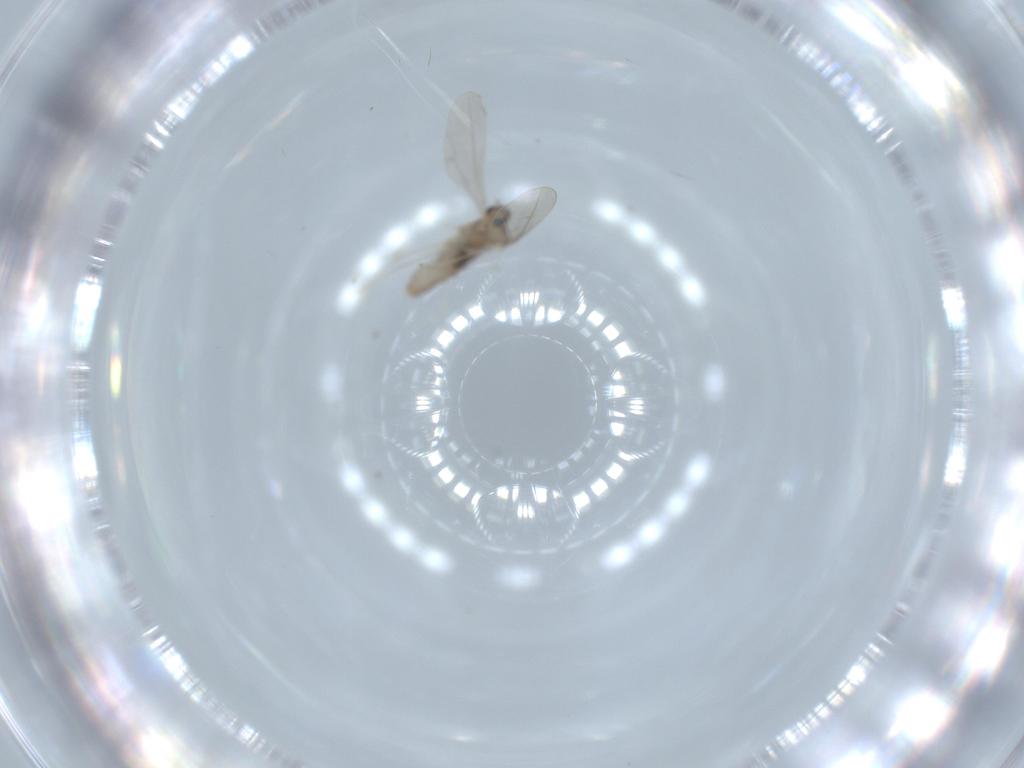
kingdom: Animalia
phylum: Arthropoda
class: Insecta
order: Diptera
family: Cecidomyiidae
